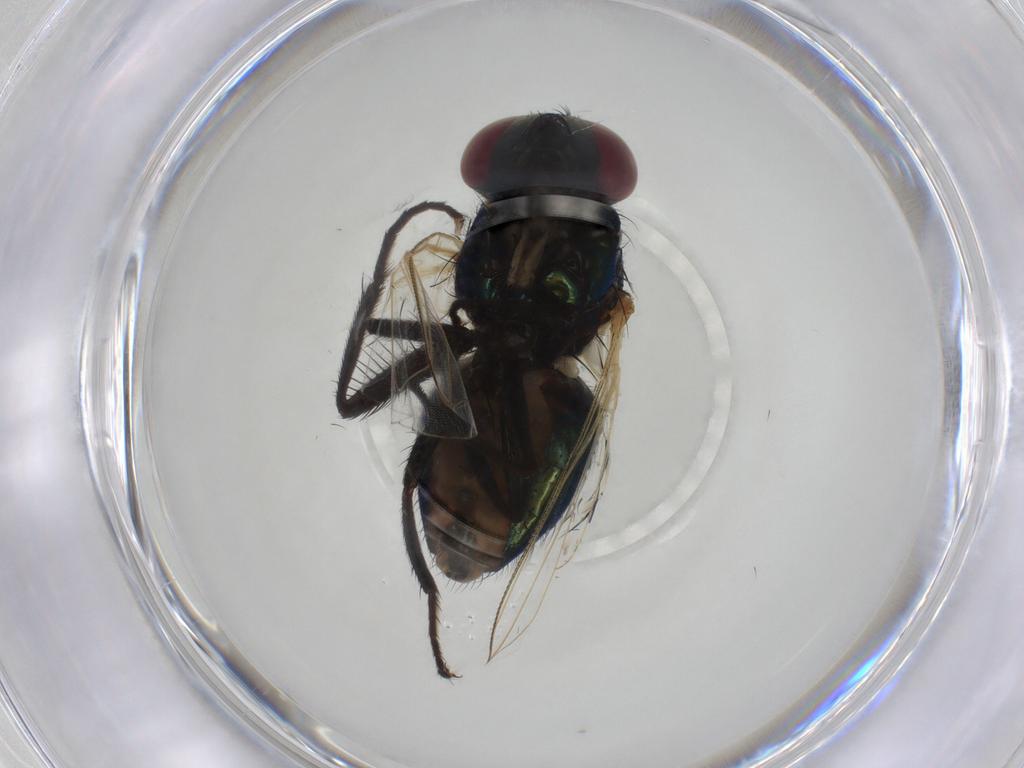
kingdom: Animalia
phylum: Arthropoda
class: Insecta
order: Diptera
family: Muscidae
